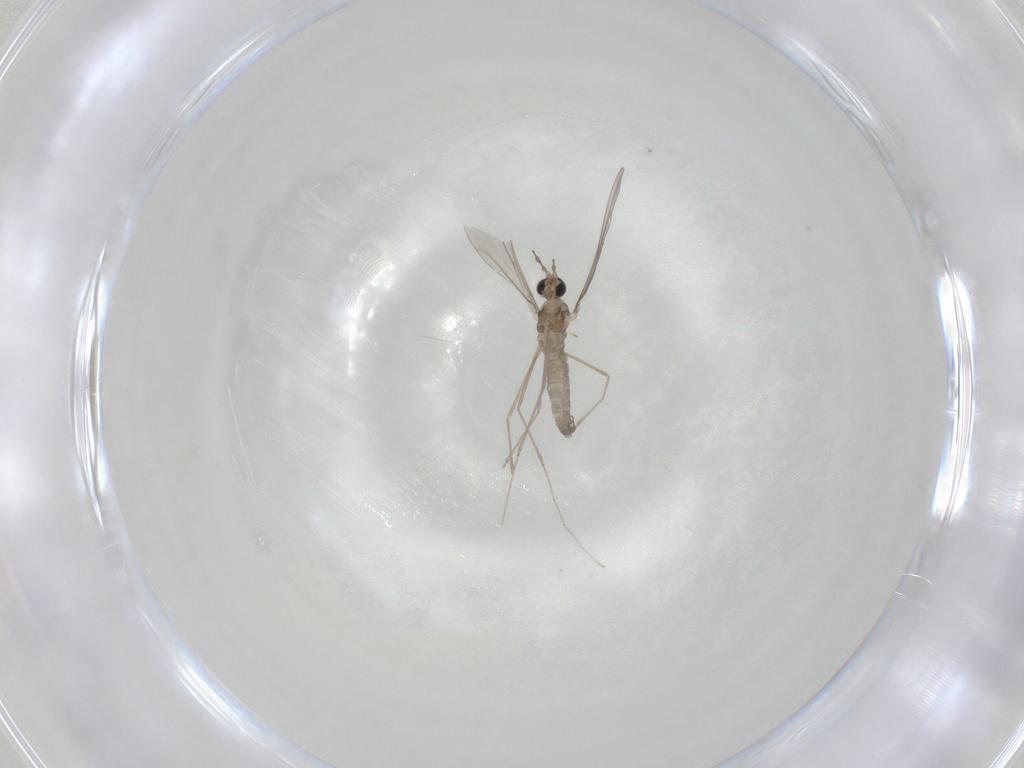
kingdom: Animalia
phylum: Arthropoda
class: Insecta
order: Diptera
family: Cecidomyiidae
